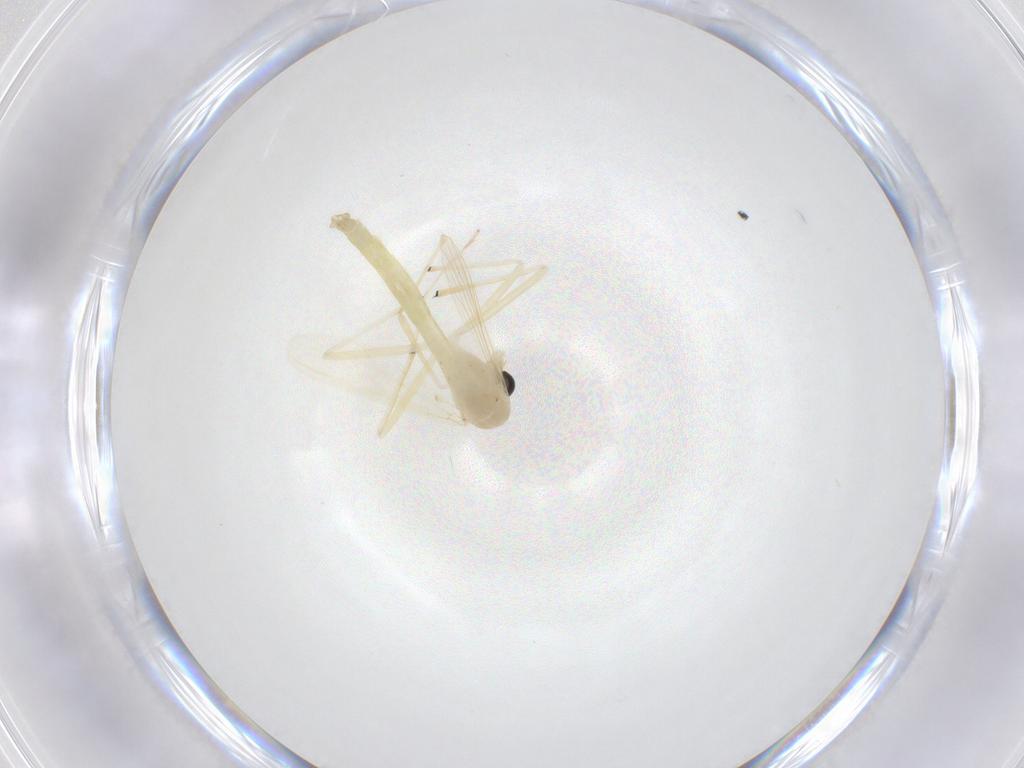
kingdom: Animalia
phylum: Arthropoda
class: Insecta
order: Diptera
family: Chironomidae
